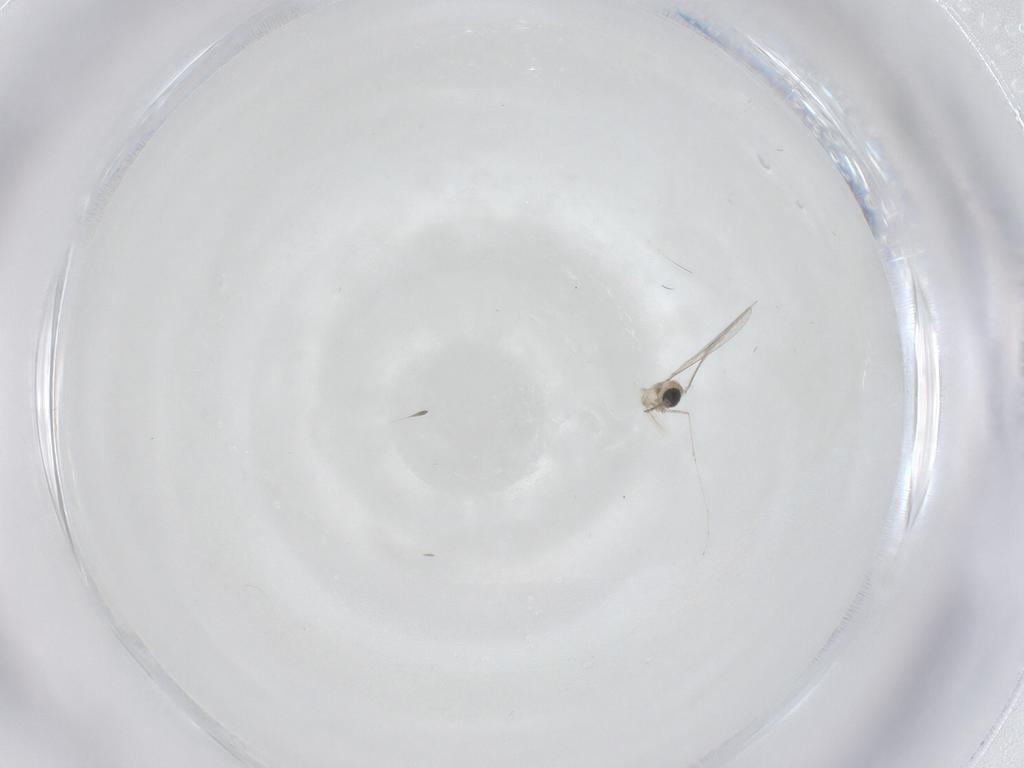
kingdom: Animalia
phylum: Arthropoda
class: Insecta
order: Diptera
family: Cecidomyiidae
